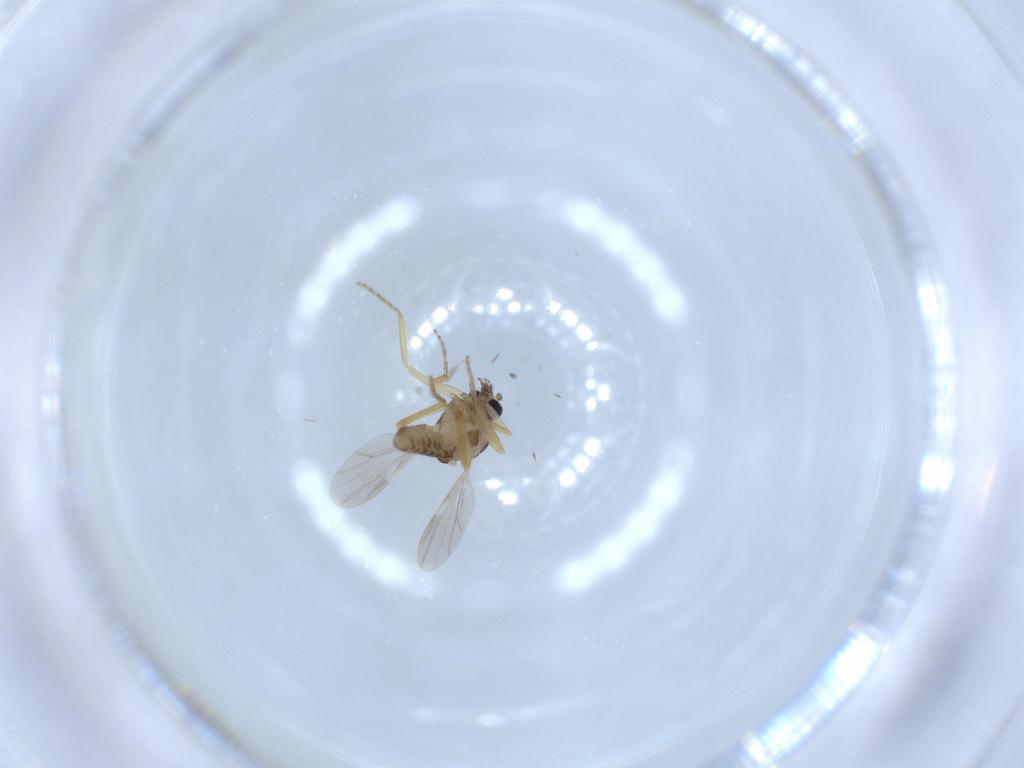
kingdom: Animalia
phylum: Arthropoda
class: Insecta
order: Diptera
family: Ceratopogonidae
